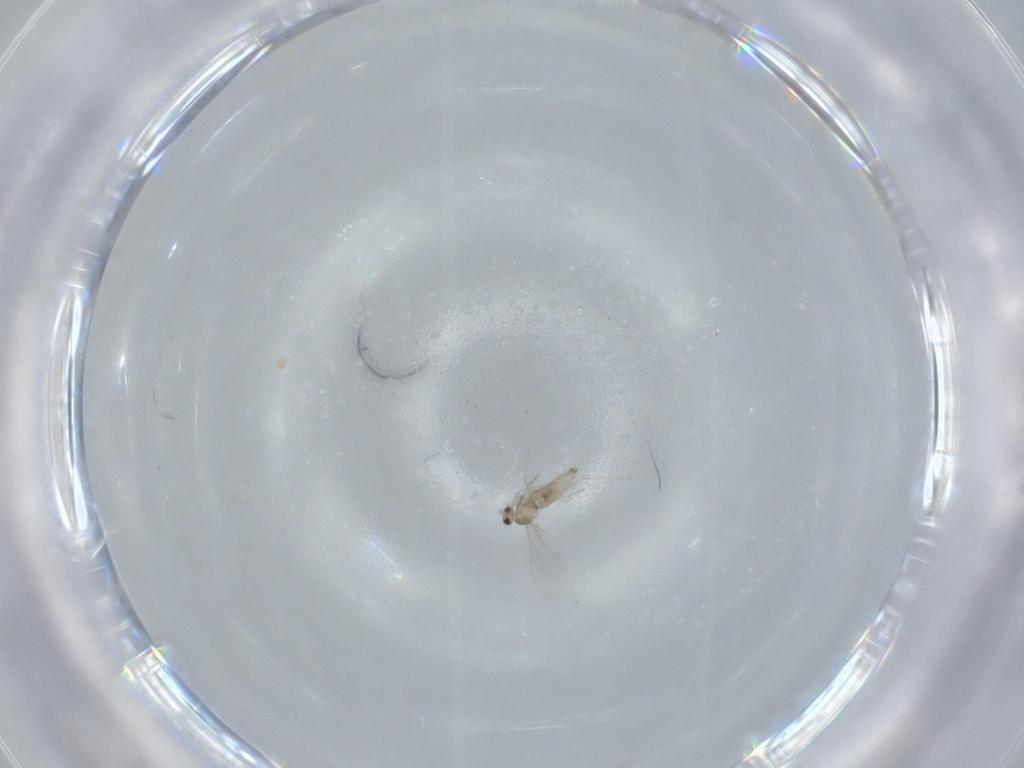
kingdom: Animalia
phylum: Arthropoda
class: Insecta
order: Diptera
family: Cecidomyiidae
